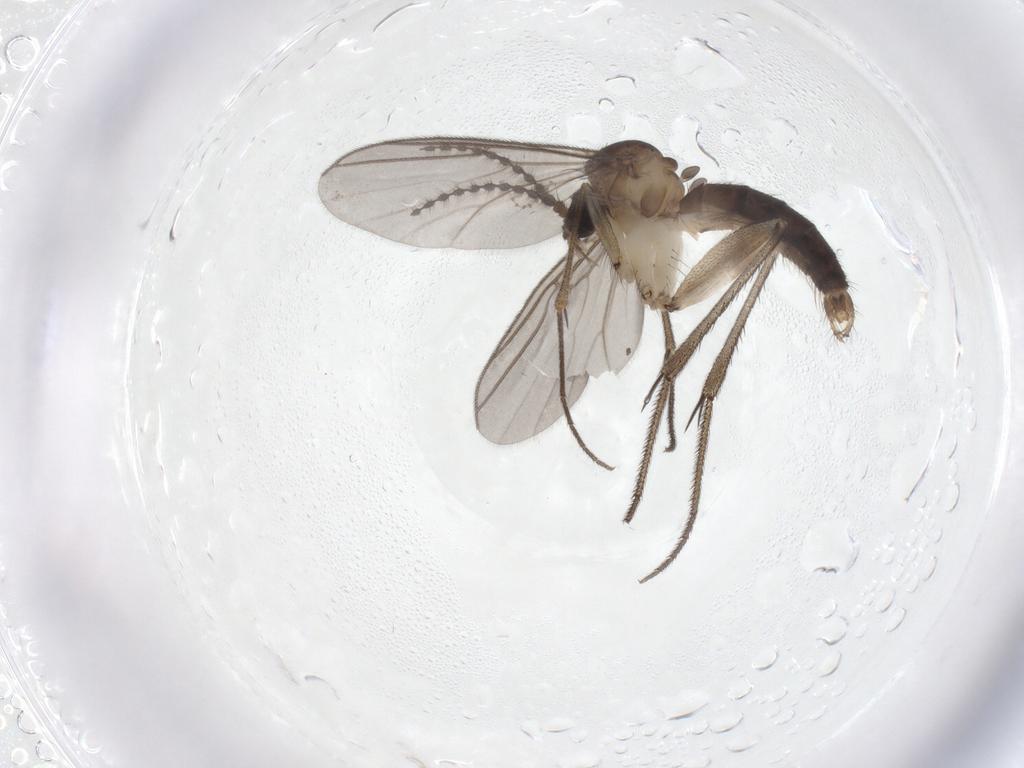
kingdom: Animalia
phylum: Arthropoda
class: Insecta
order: Diptera
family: Mycetophilidae
